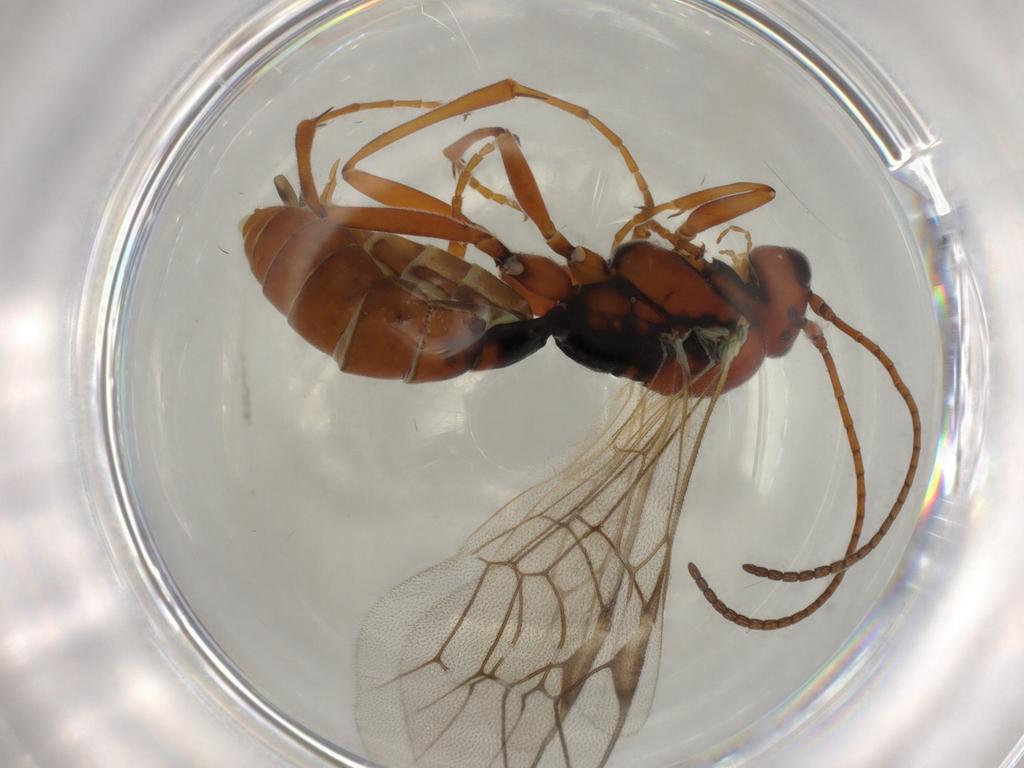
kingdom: Animalia
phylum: Arthropoda
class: Insecta
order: Hymenoptera
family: Ichneumonidae
